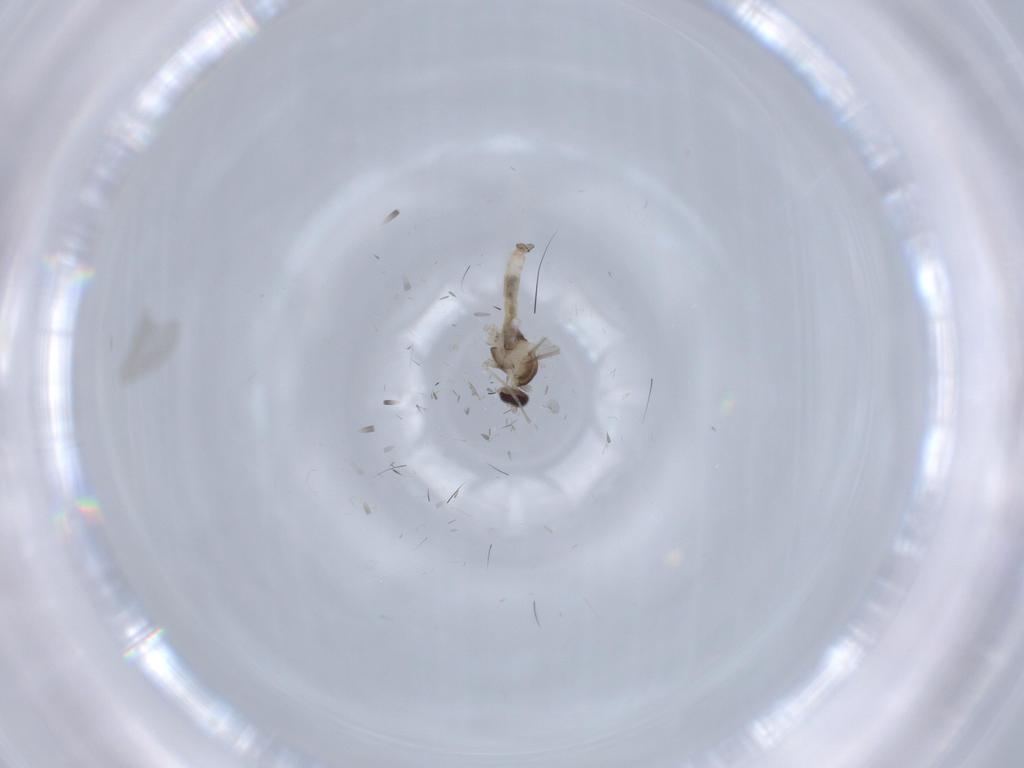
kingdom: Animalia
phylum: Arthropoda
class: Insecta
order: Diptera
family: Cecidomyiidae
